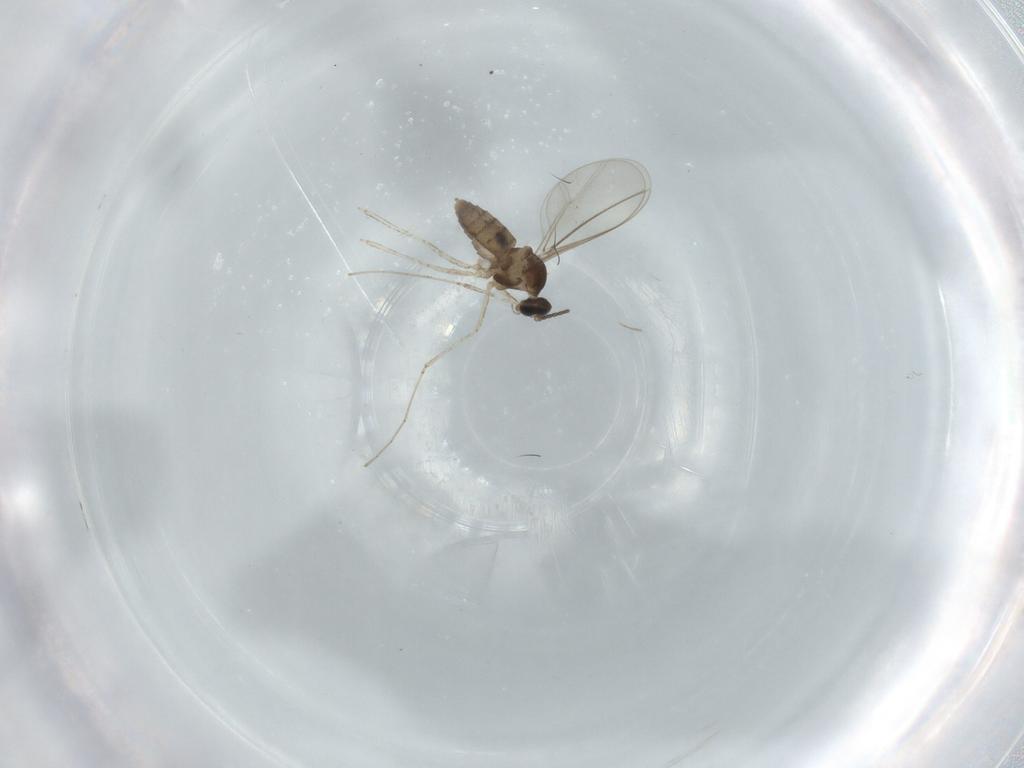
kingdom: Animalia
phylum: Arthropoda
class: Insecta
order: Diptera
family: Cecidomyiidae
